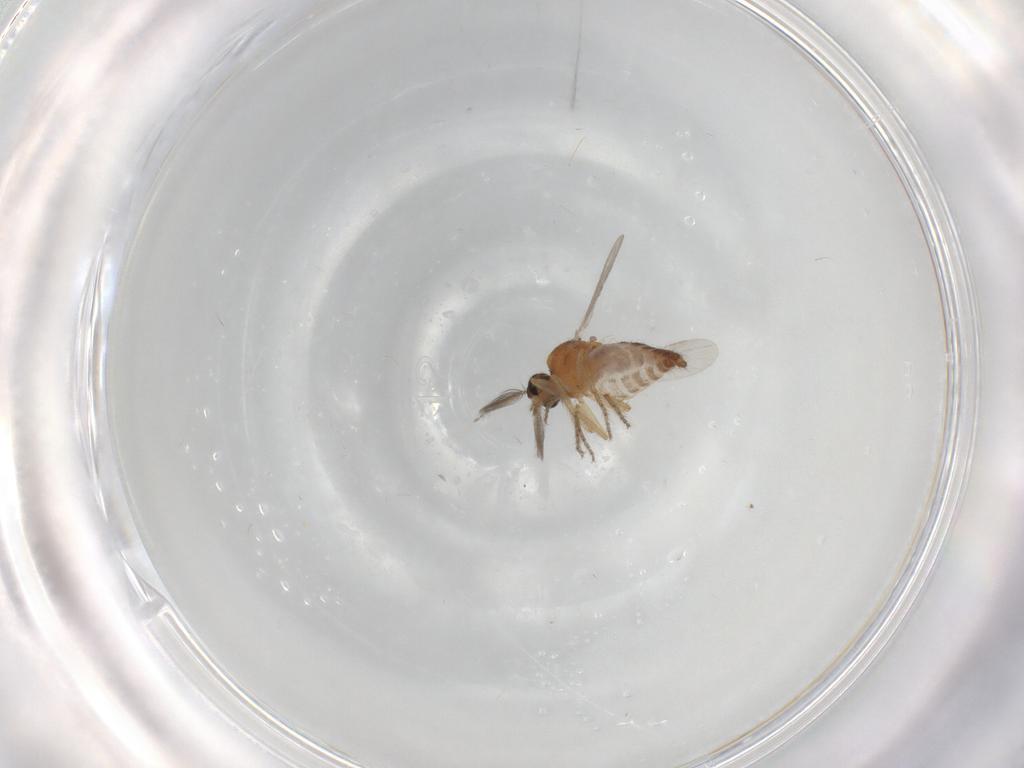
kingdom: Animalia
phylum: Arthropoda
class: Insecta
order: Diptera
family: Ceratopogonidae
